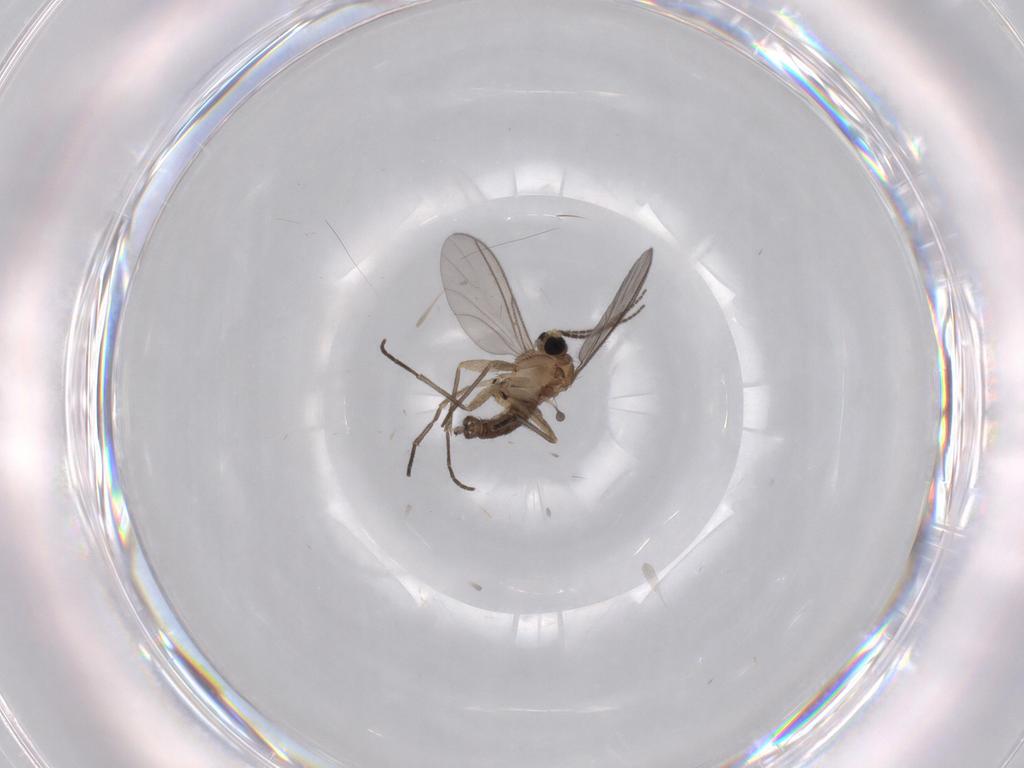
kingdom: Animalia
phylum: Arthropoda
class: Insecta
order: Diptera
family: Sciaridae
